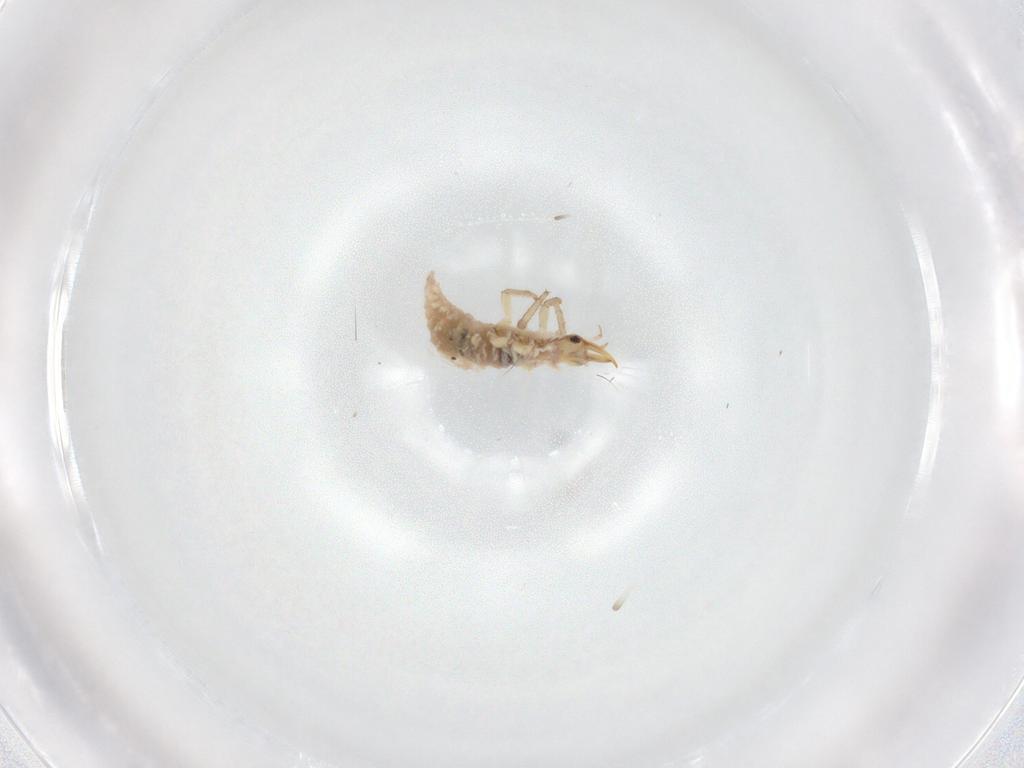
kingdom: Animalia
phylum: Arthropoda
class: Insecta
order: Neuroptera
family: Chrysopidae
